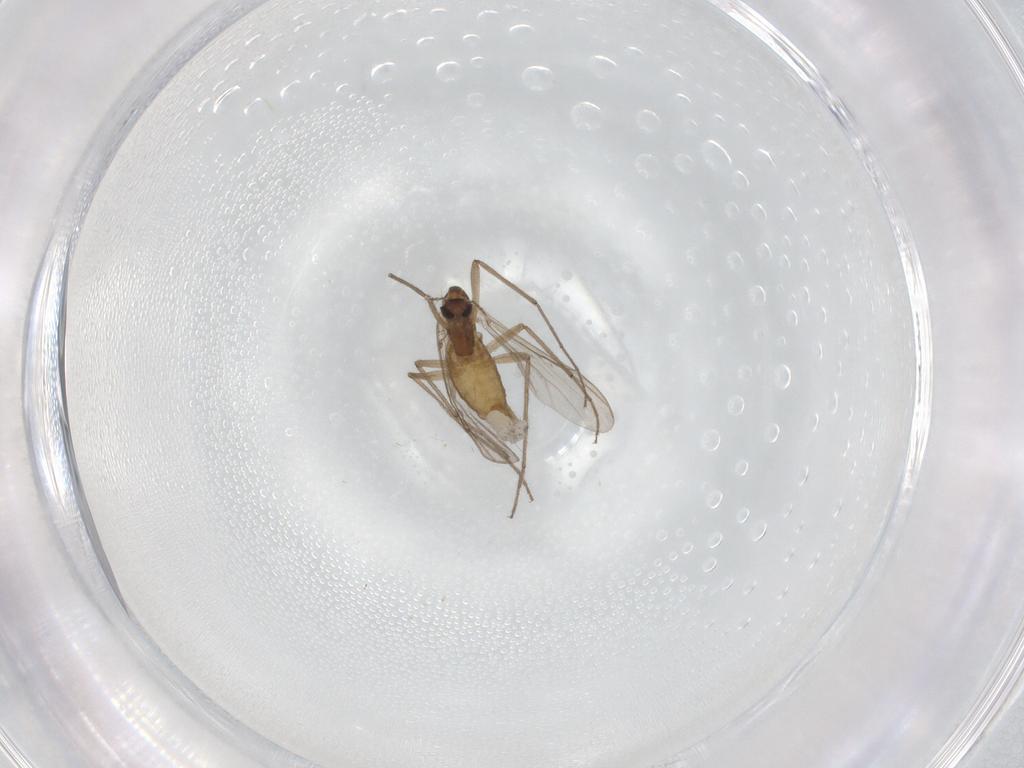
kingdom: Animalia
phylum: Arthropoda
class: Insecta
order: Diptera
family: Chironomidae
